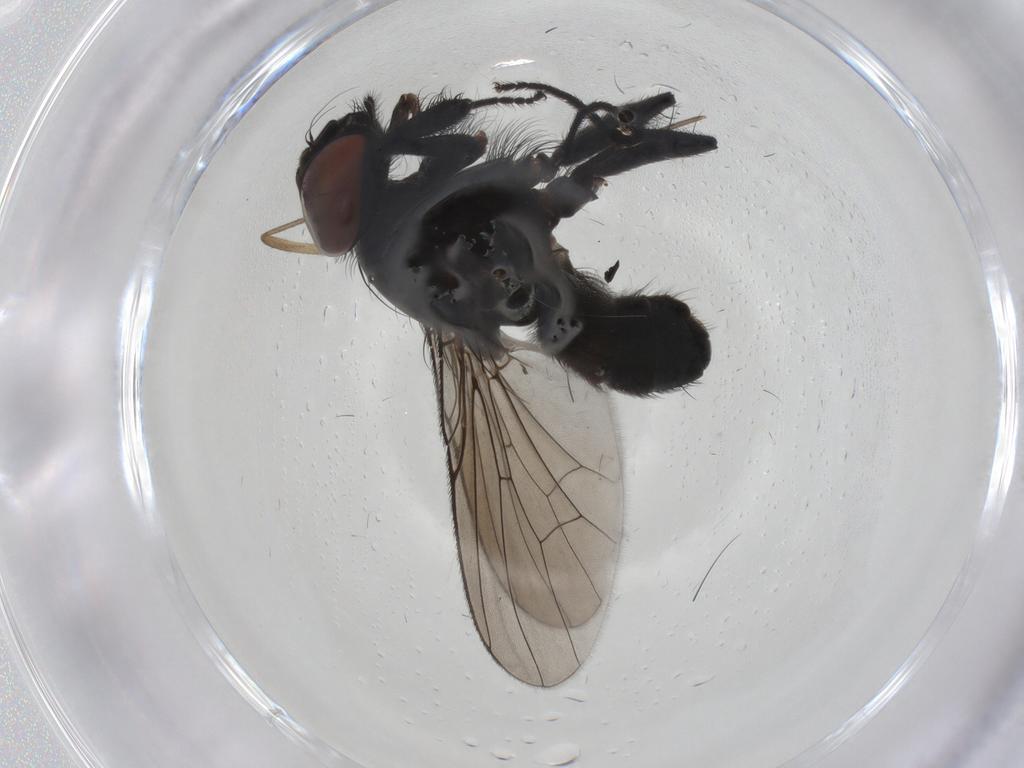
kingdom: Animalia
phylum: Arthropoda
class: Insecta
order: Diptera
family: Muscidae
